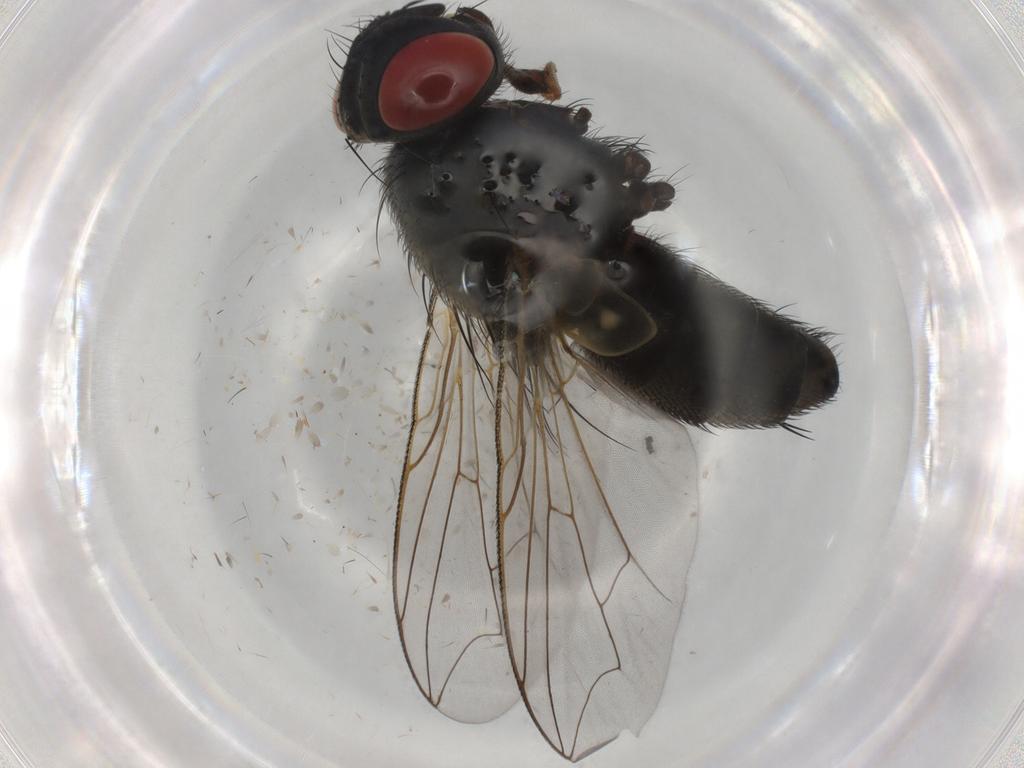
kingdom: Animalia
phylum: Arthropoda
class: Insecta
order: Diptera
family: Sarcophagidae
